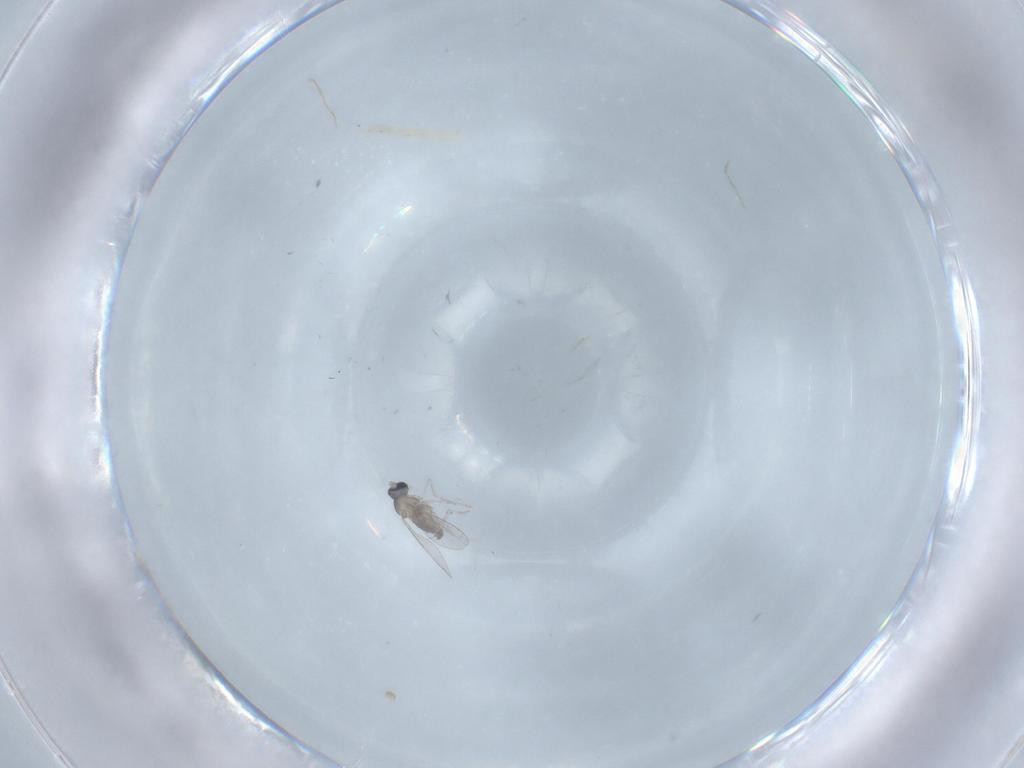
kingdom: Animalia
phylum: Arthropoda
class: Insecta
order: Diptera
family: Cecidomyiidae
